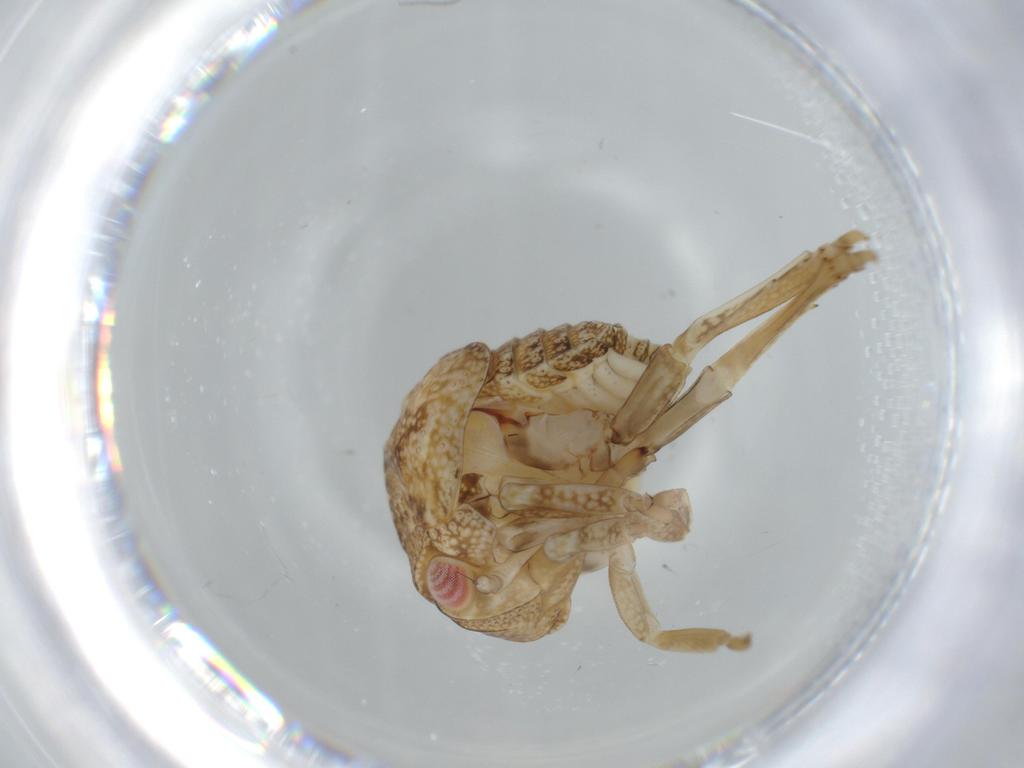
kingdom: Animalia
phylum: Arthropoda
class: Insecta
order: Hemiptera
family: Acanaloniidae
